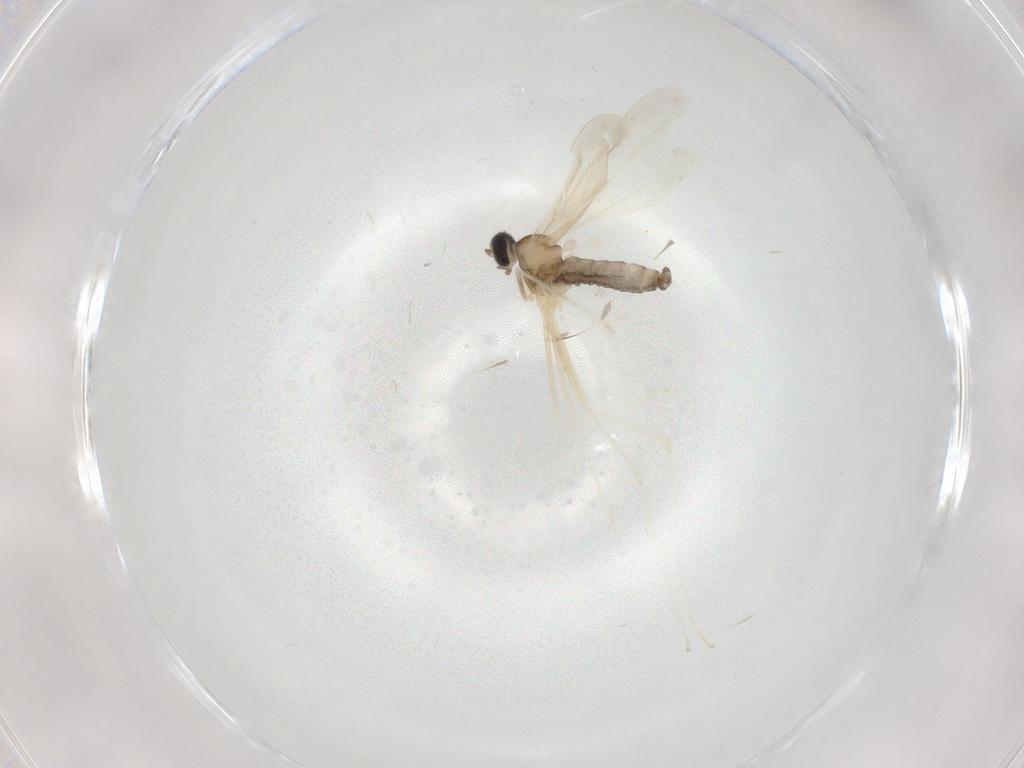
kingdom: Animalia
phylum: Arthropoda
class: Insecta
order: Diptera
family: Cecidomyiidae
